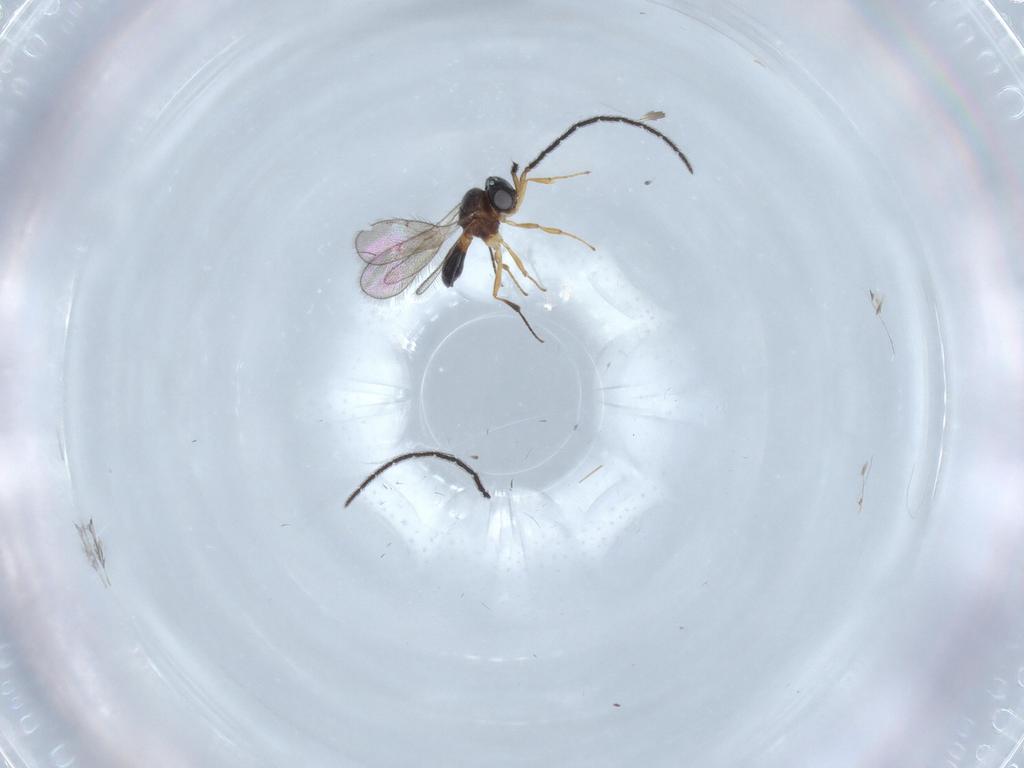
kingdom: Animalia
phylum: Arthropoda
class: Insecta
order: Hymenoptera
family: Scelionidae
